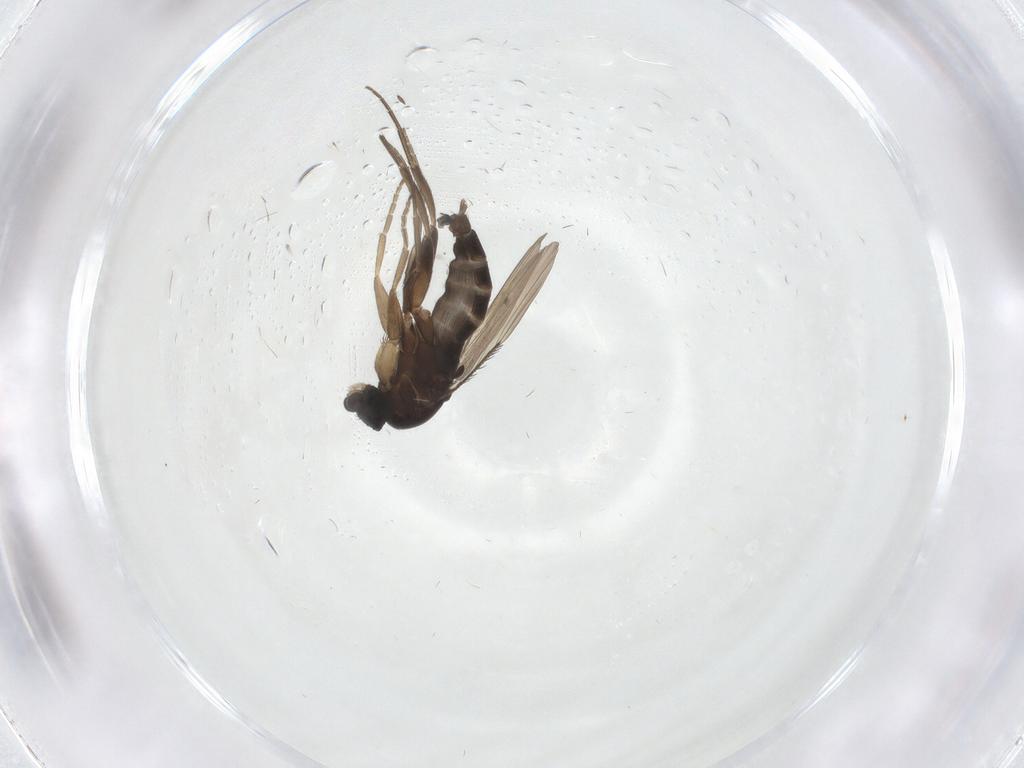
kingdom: Animalia
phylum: Arthropoda
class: Insecta
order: Diptera
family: Phoridae
